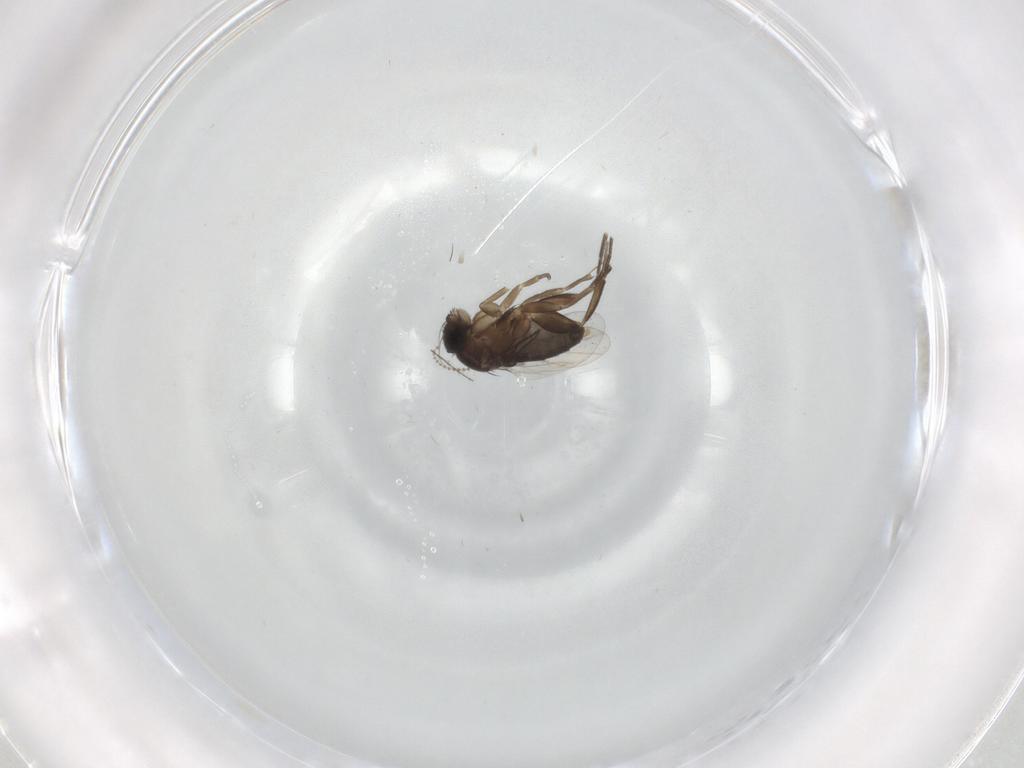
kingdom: Animalia
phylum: Arthropoda
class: Insecta
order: Diptera
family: Phoridae
